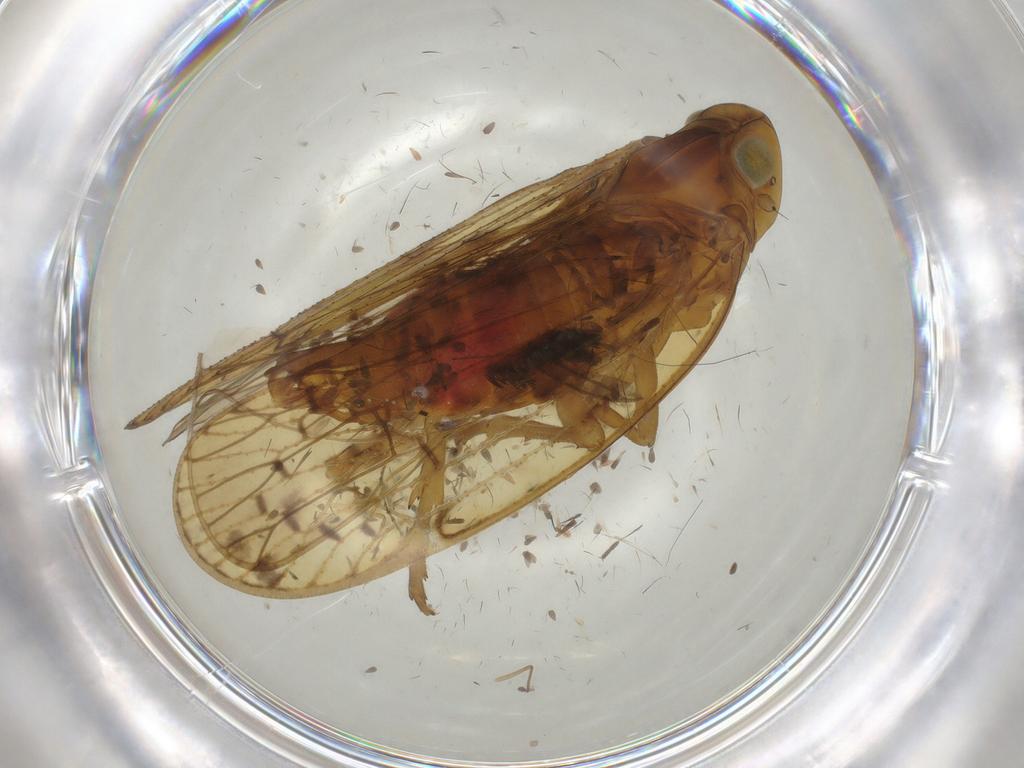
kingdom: Animalia
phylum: Arthropoda
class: Insecta
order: Hemiptera
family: Nabidae
